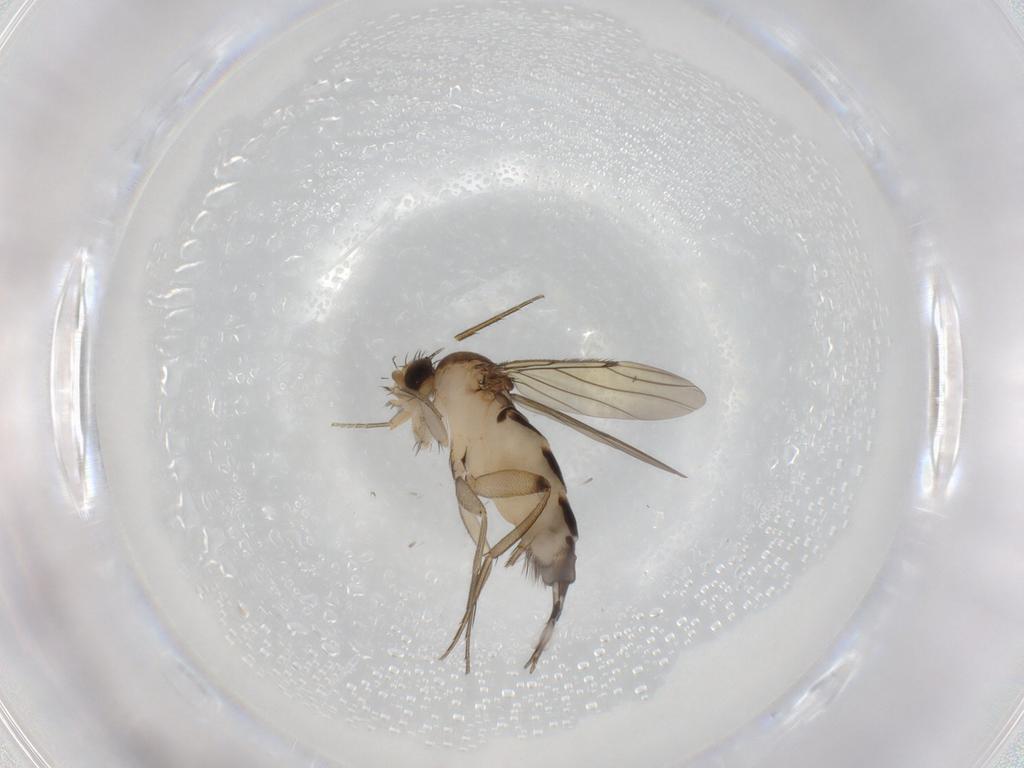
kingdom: Animalia
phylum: Arthropoda
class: Insecta
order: Diptera
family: Phoridae
